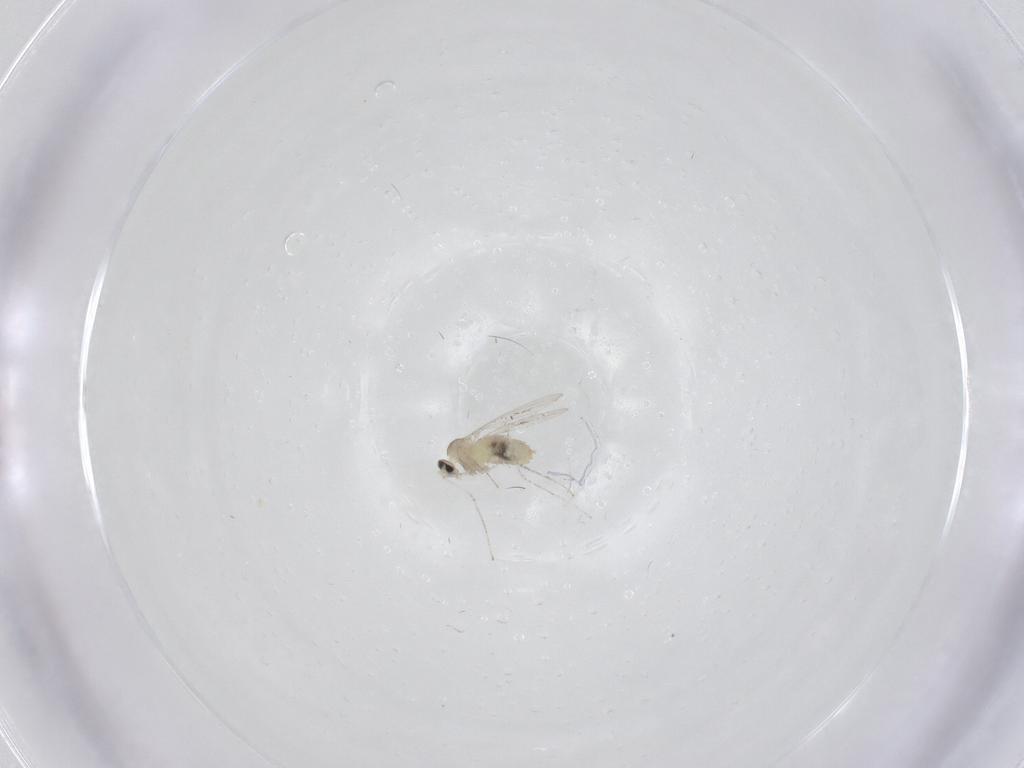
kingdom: Animalia
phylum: Arthropoda
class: Insecta
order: Diptera
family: Cecidomyiidae
